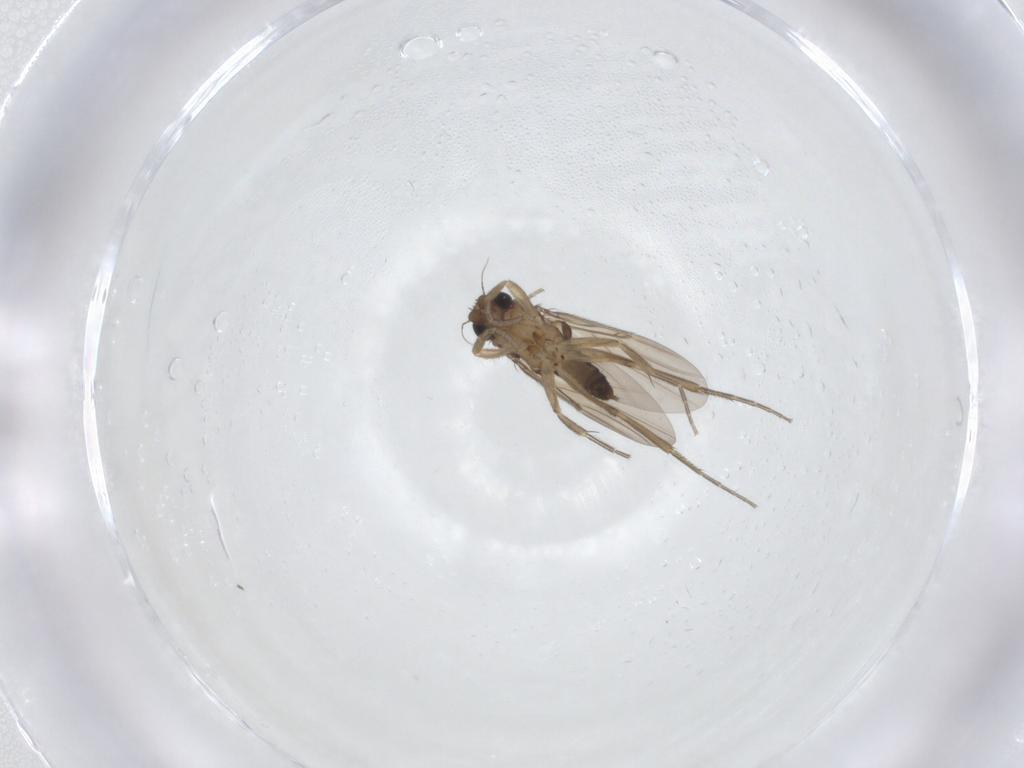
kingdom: Animalia
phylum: Arthropoda
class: Insecta
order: Diptera
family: Phoridae
